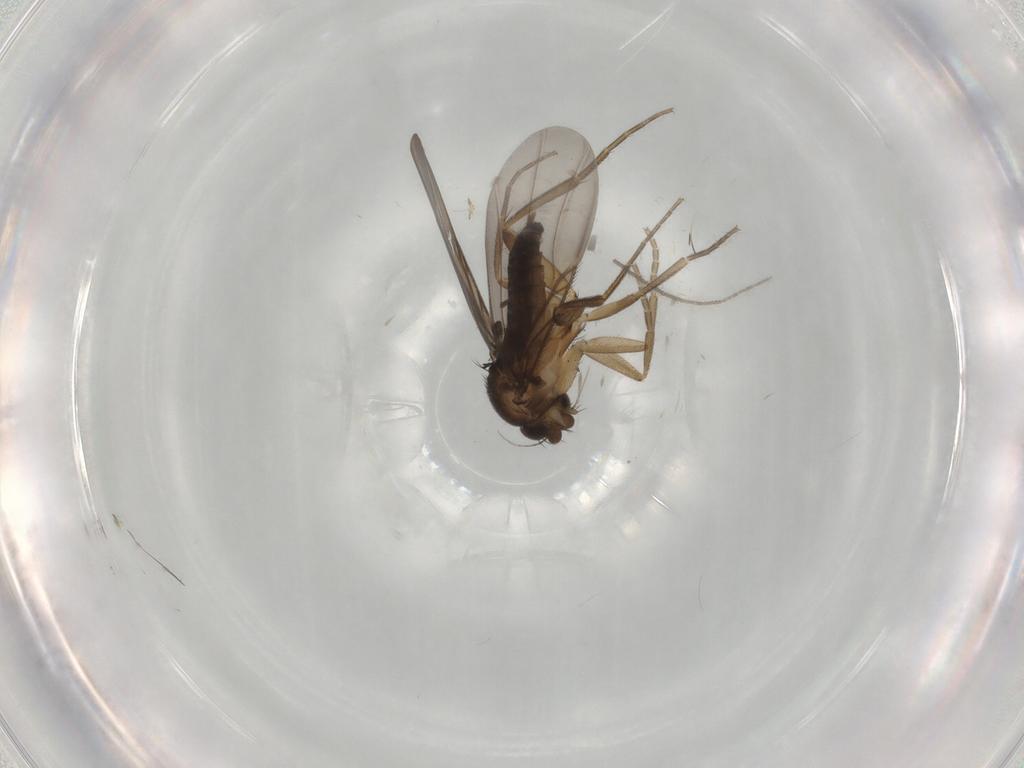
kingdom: Animalia
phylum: Arthropoda
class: Insecta
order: Diptera
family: Phoridae
